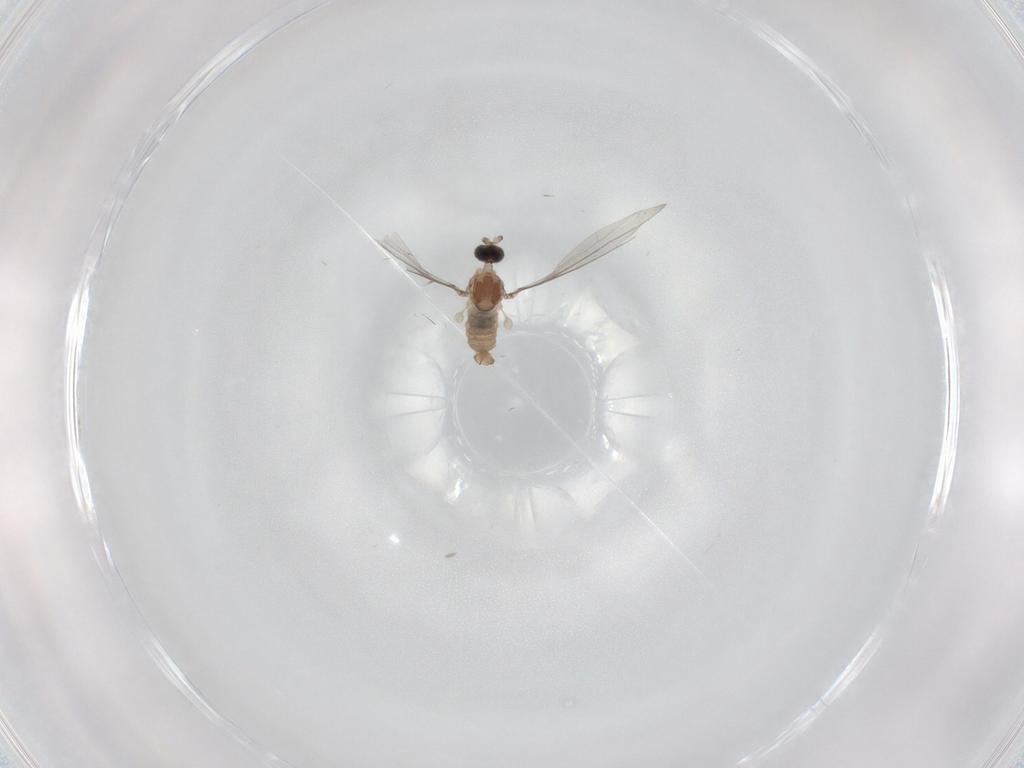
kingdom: Animalia
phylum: Arthropoda
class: Insecta
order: Diptera
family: Cecidomyiidae
